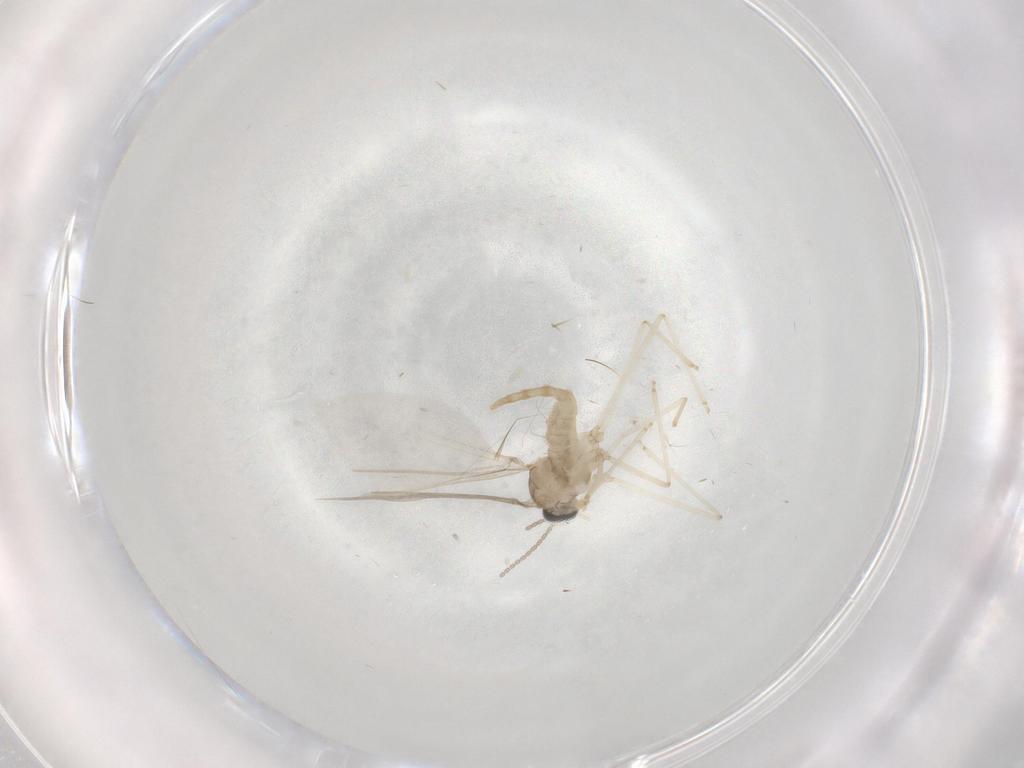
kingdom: Animalia
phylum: Arthropoda
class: Insecta
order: Diptera
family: Cecidomyiidae
